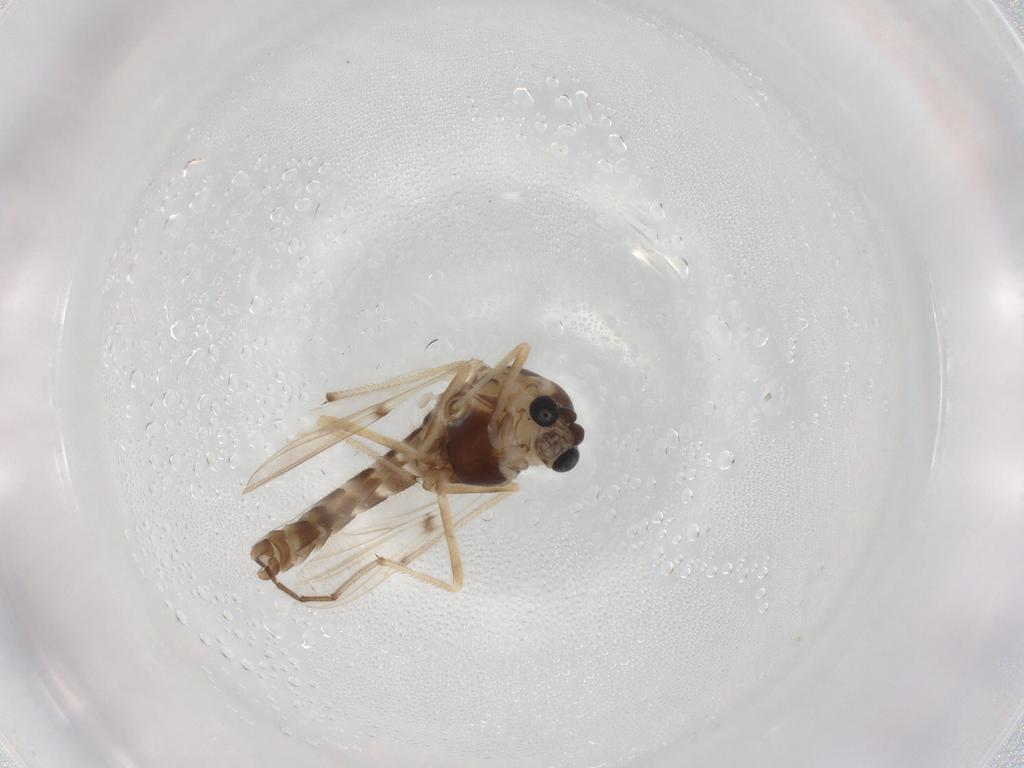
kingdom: Animalia
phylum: Arthropoda
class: Insecta
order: Diptera
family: Chironomidae
